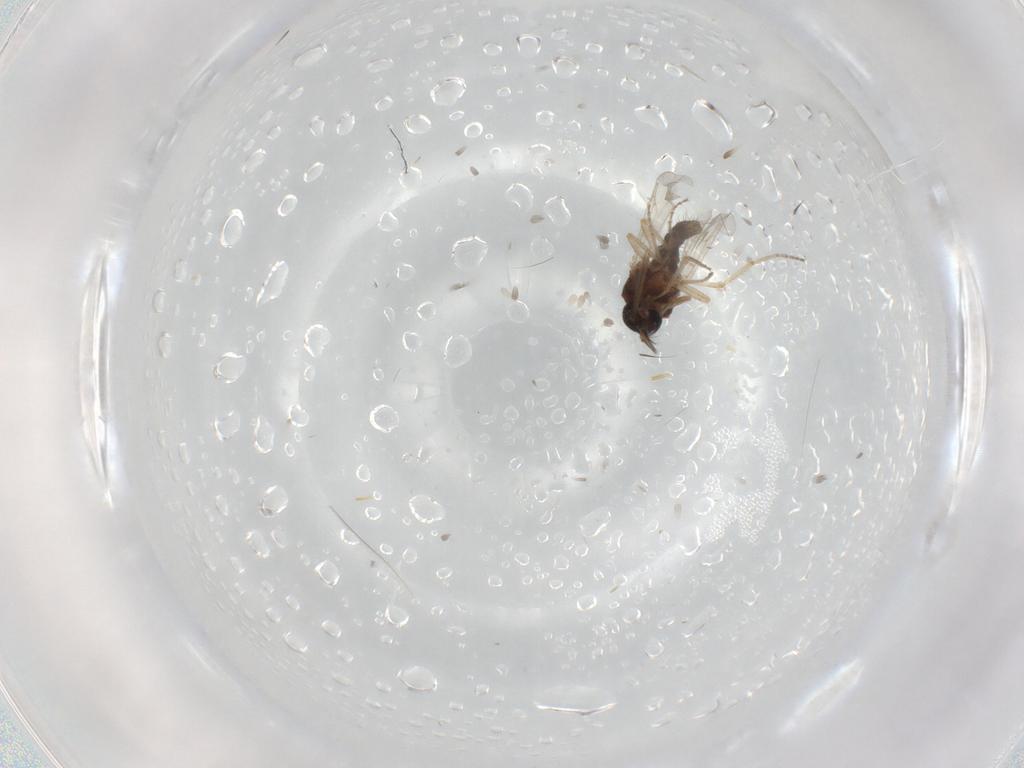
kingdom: Animalia
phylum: Arthropoda
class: Insecta
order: Diptera
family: Ceratopogonidae
